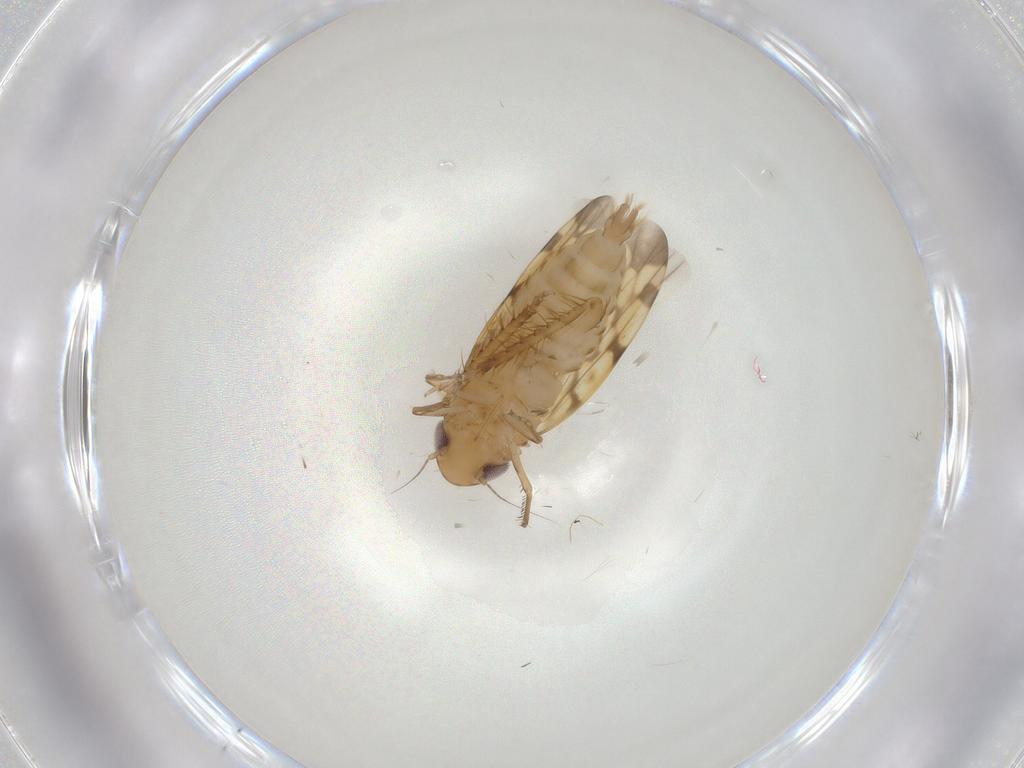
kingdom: Animalia
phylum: Arthropoda
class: Insecta
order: Hemiptera
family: Cicadellidae
